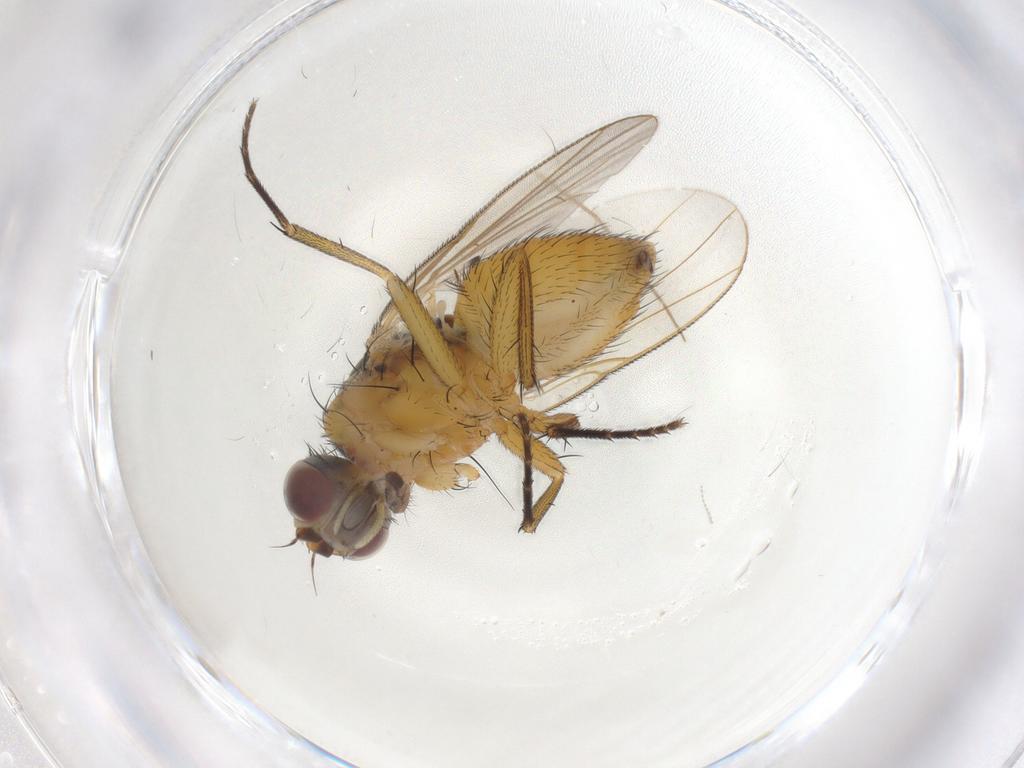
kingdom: Animalia
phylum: Arthropoda
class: Insecta
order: Diptera
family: Muscidae
